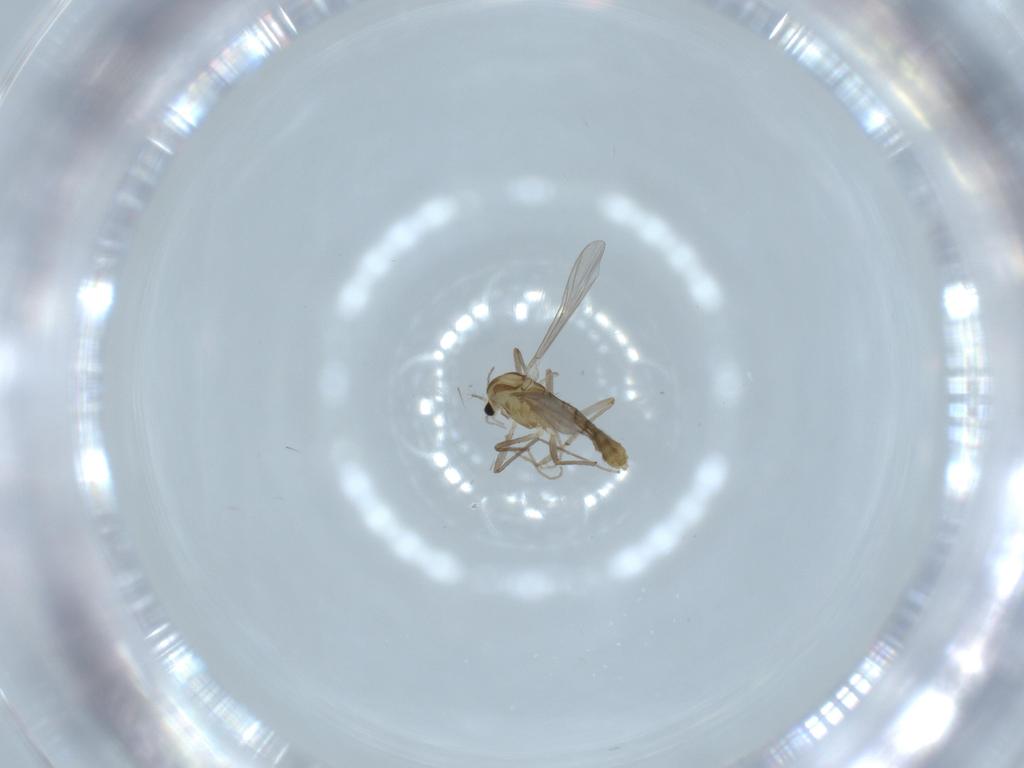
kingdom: Animalia
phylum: Arthropoda
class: Insecta
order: Diptera
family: Chironomidae
